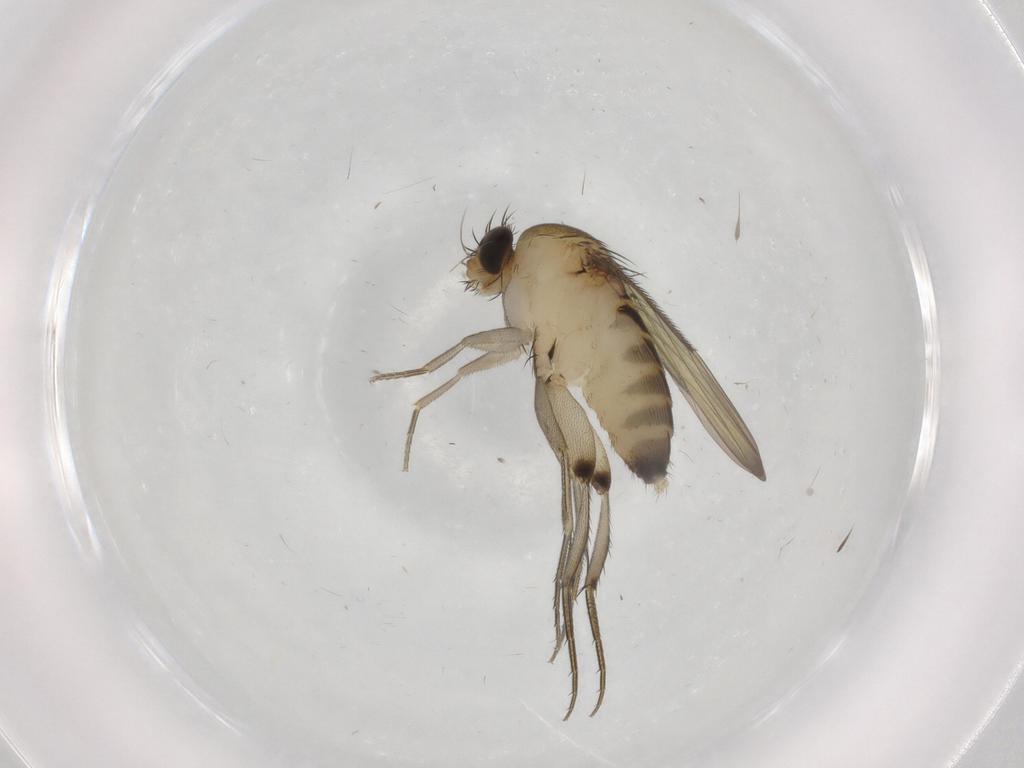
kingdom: Animalia
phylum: Arthropoda
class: Insecta
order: Diptera
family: Phoridae
